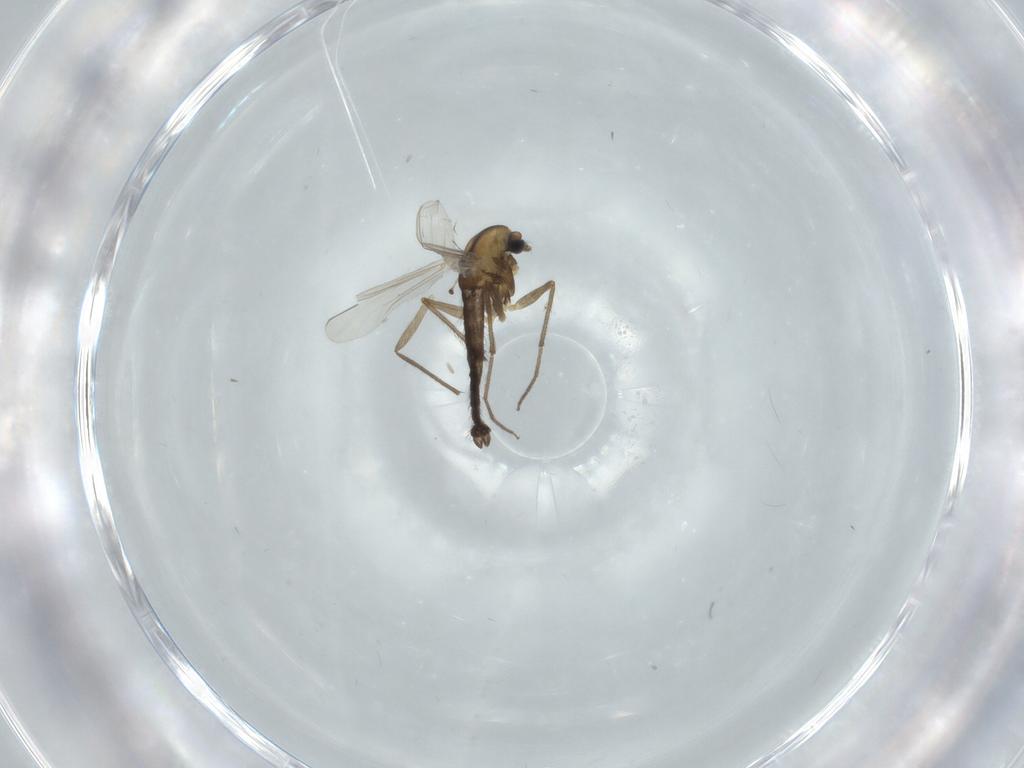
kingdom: Animalia
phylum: Arthropoda
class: Insecta
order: Diptera
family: Chironomidae
